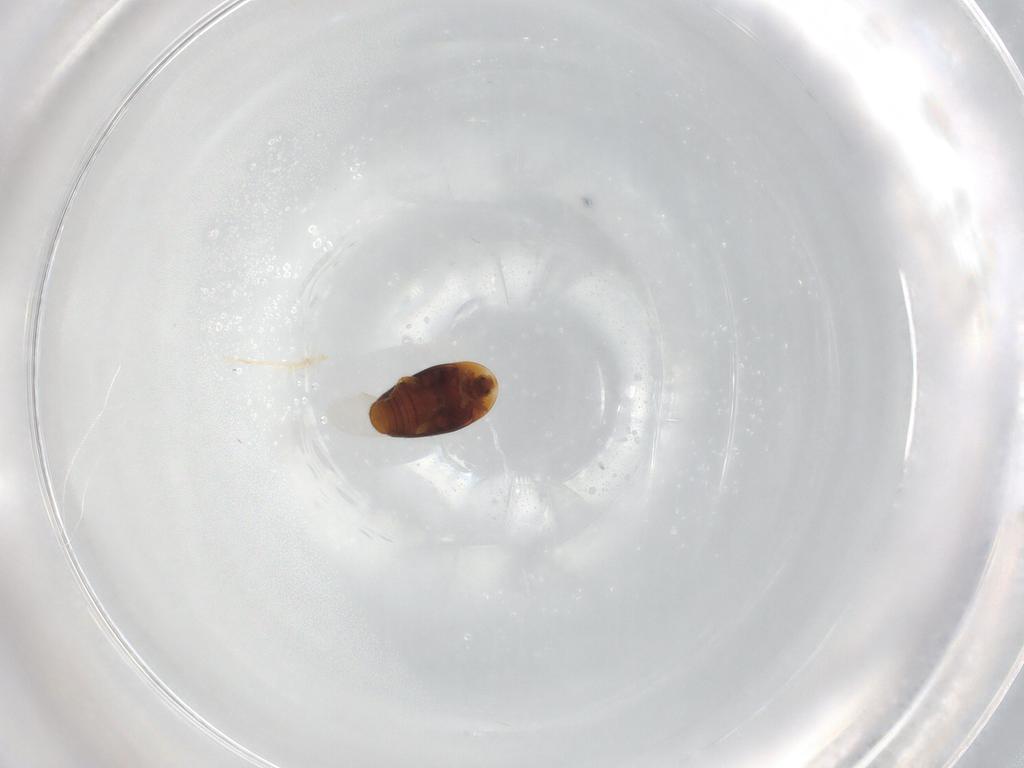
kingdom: Animalia
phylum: Arthropoda
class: Insecta
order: Coleoptera
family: Corylophidae
